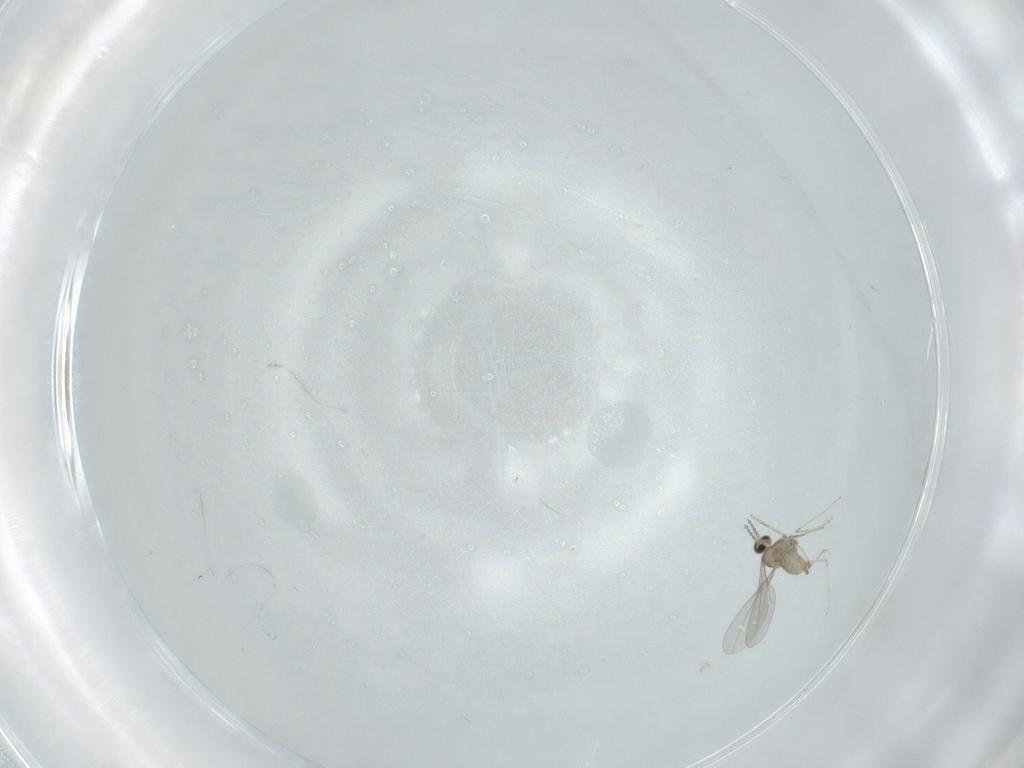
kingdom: Animalia
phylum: Arthropoda
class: Insecta
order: Diptera
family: Cecidomyiidae
